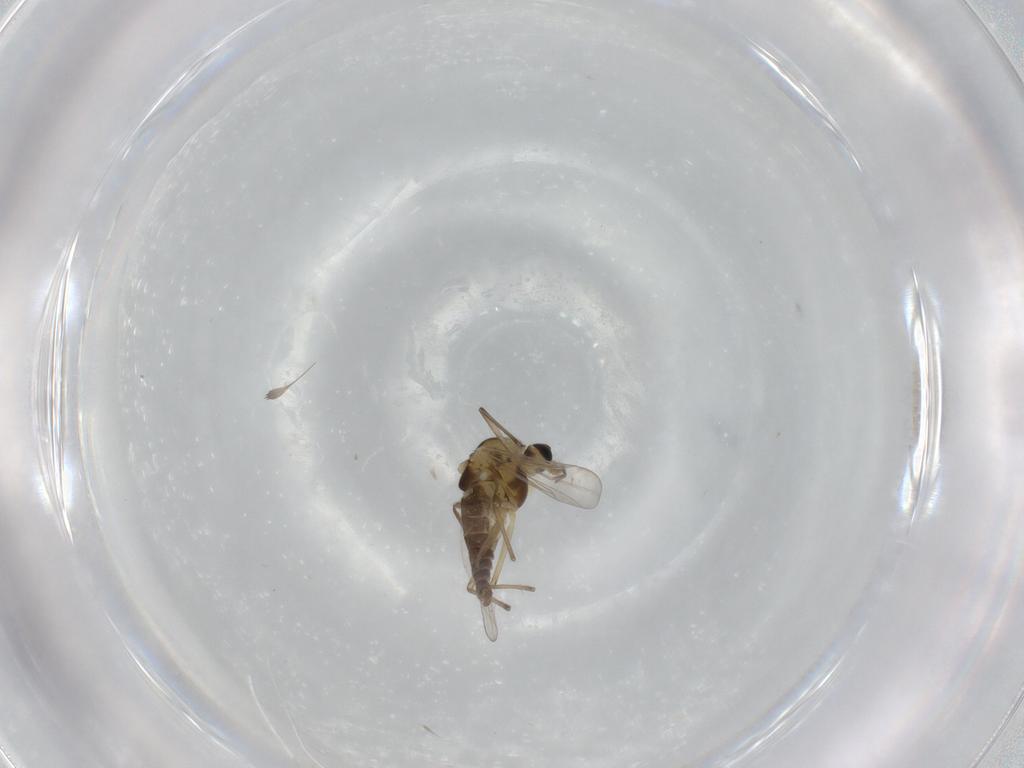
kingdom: Animalia
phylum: Arthropoda
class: Insecta
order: Diptera
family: Chironomidae
